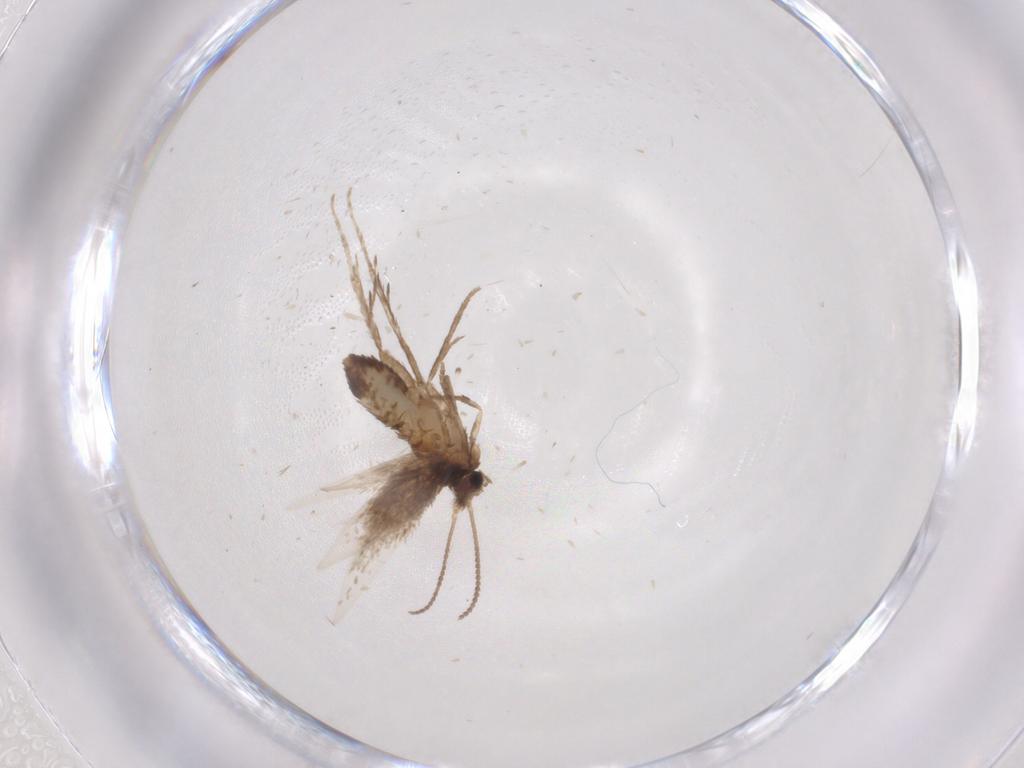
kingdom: Animalia
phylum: Arthropoda
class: Insecta
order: Lepidoptera
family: Nepticulidae
